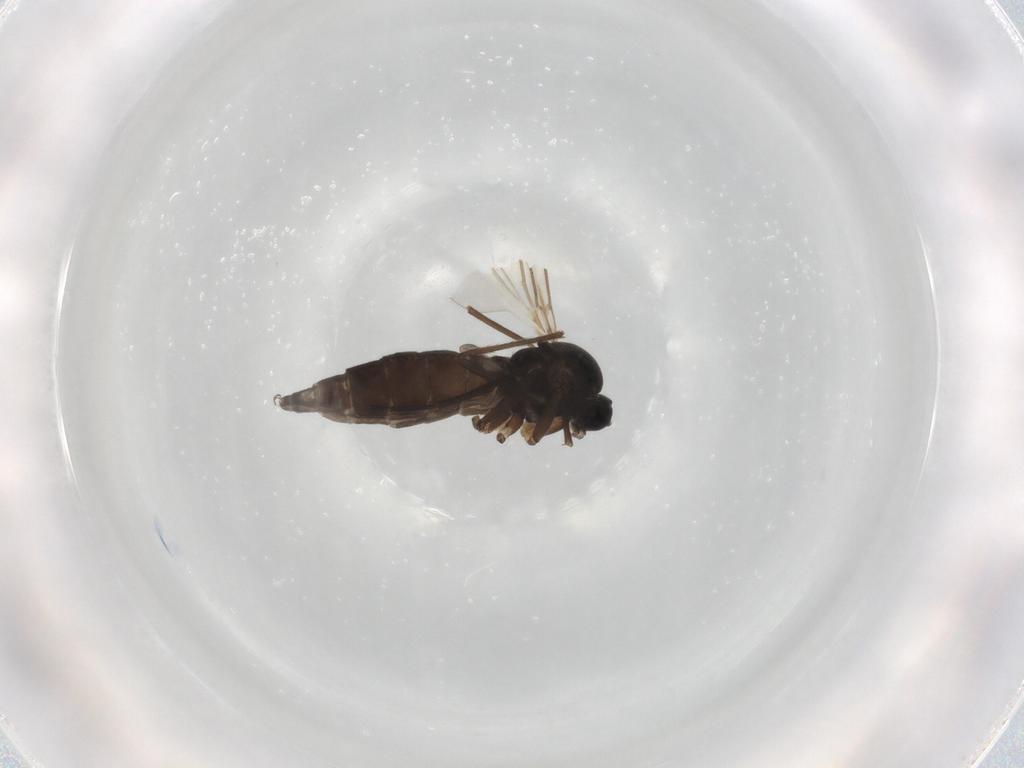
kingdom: Animalia
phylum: Arthropoda
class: Insecta
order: Diptera
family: Chironomidae
